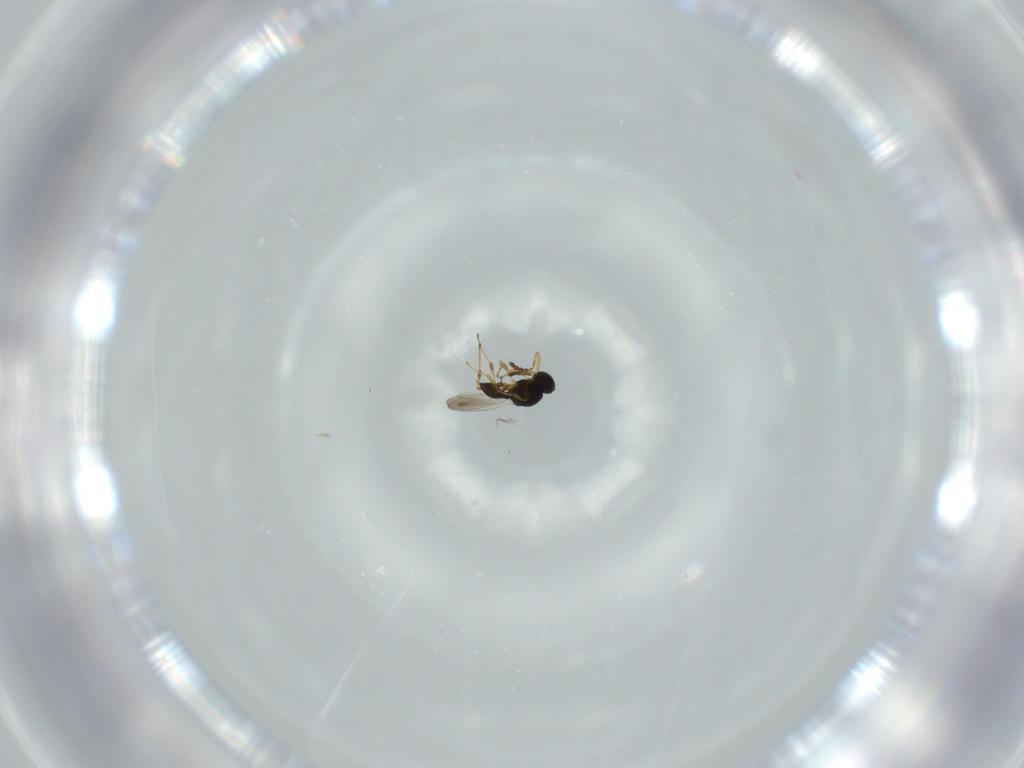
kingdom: Animalia
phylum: Arthropoda
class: Insecta
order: Hymenoptera
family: Platygastridae
